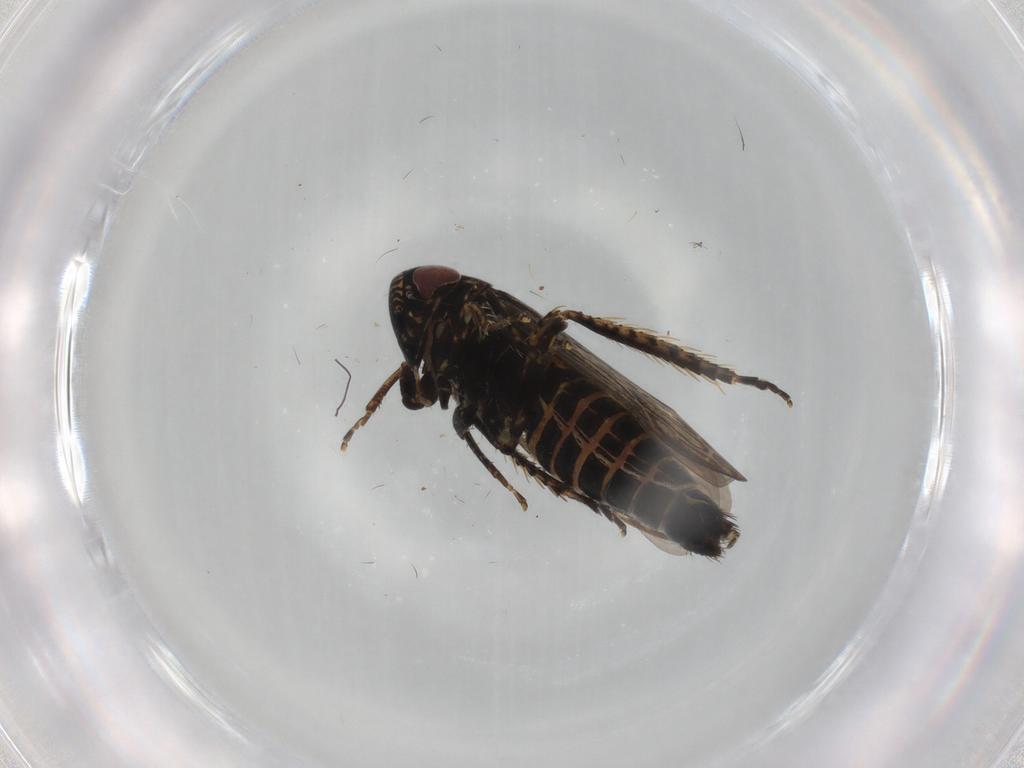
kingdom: Animalia
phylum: Arthropoda
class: Insecta
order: Hemiptera
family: Cicadellidae
